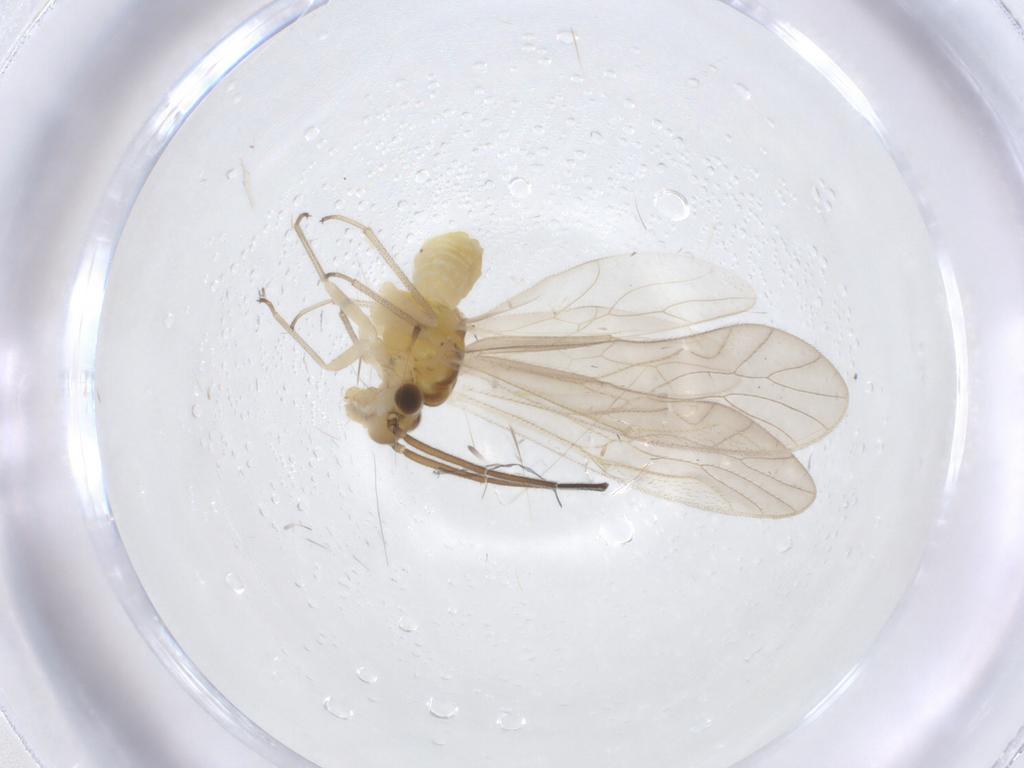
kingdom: Animalia
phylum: Arthropoda
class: Insecta
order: Psocodea
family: Caeciliusidae
